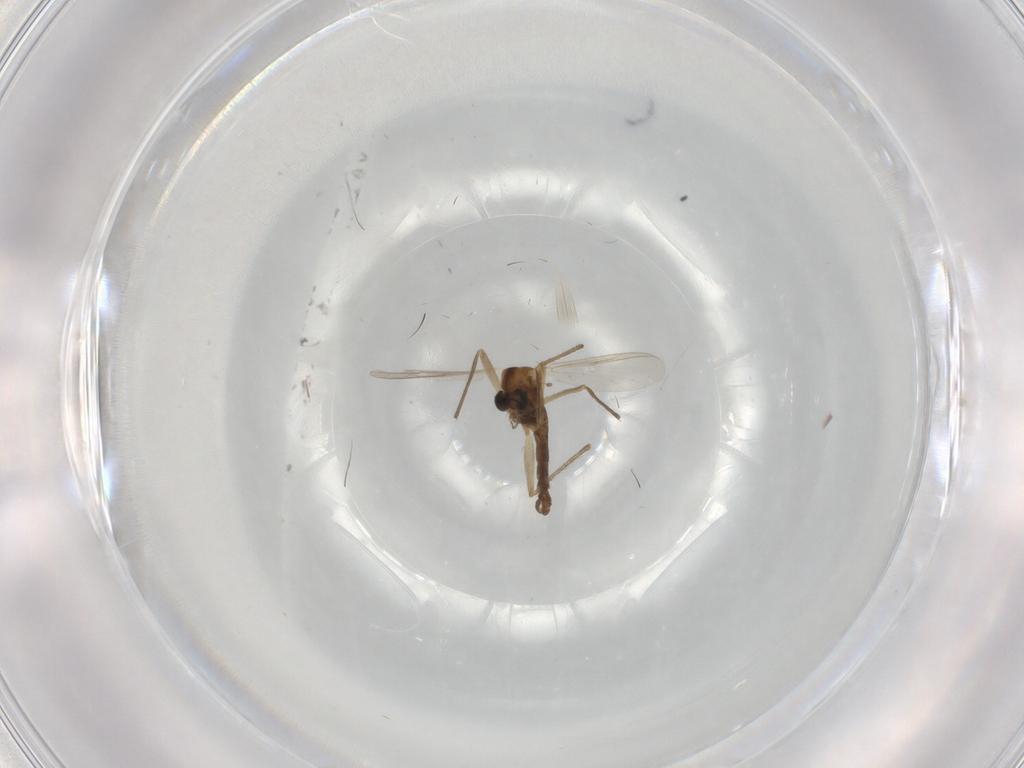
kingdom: Animalia
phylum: Arthropoda
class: Insecta
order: Diptera
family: Chironomidae
